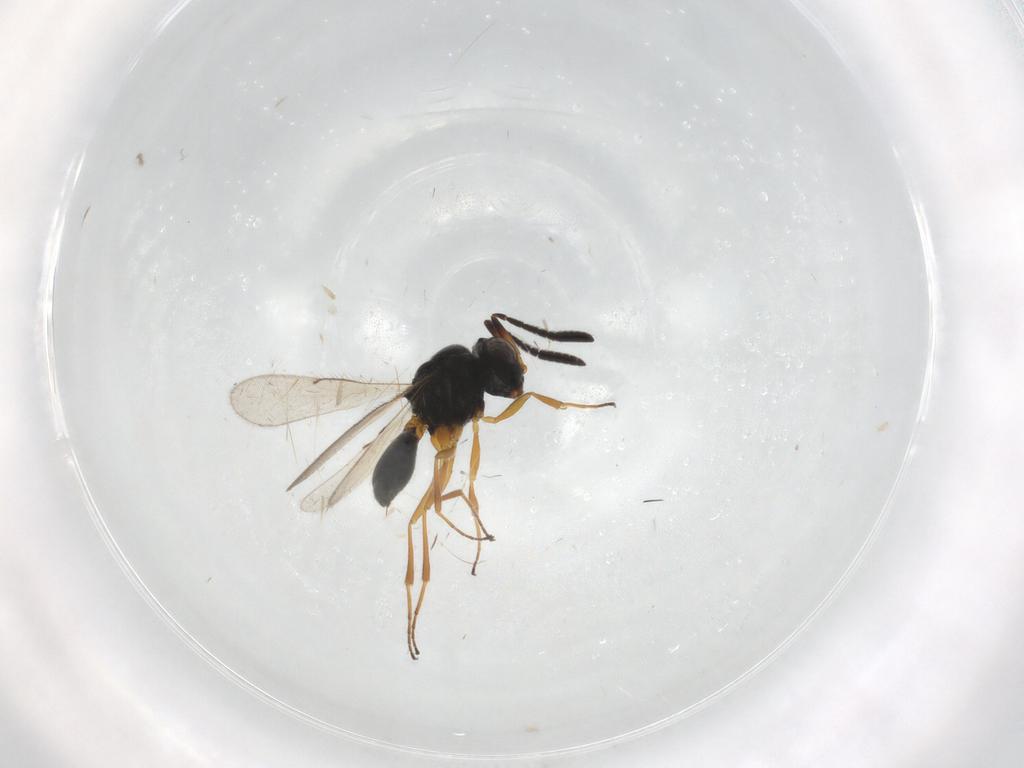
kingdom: Animalia
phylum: Arthropoda
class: Insecta
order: Hymenoptera
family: Scelionidae
